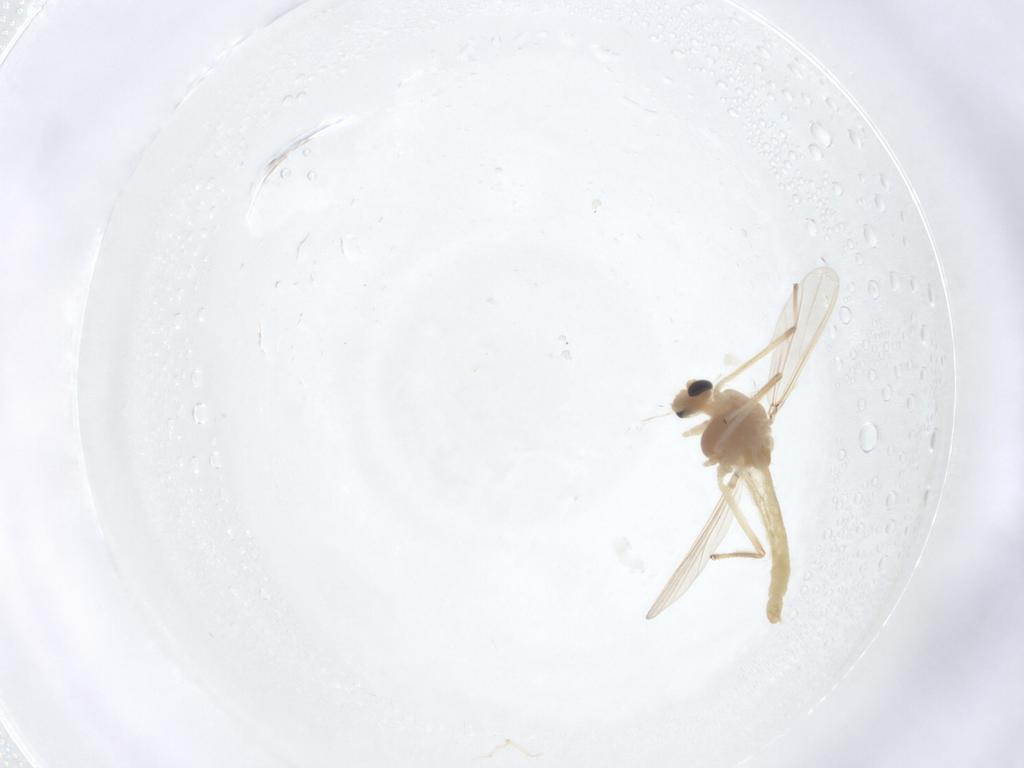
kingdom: Animalia
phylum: Arthropoda
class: Insecta
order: Diptera
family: Chironomidae
